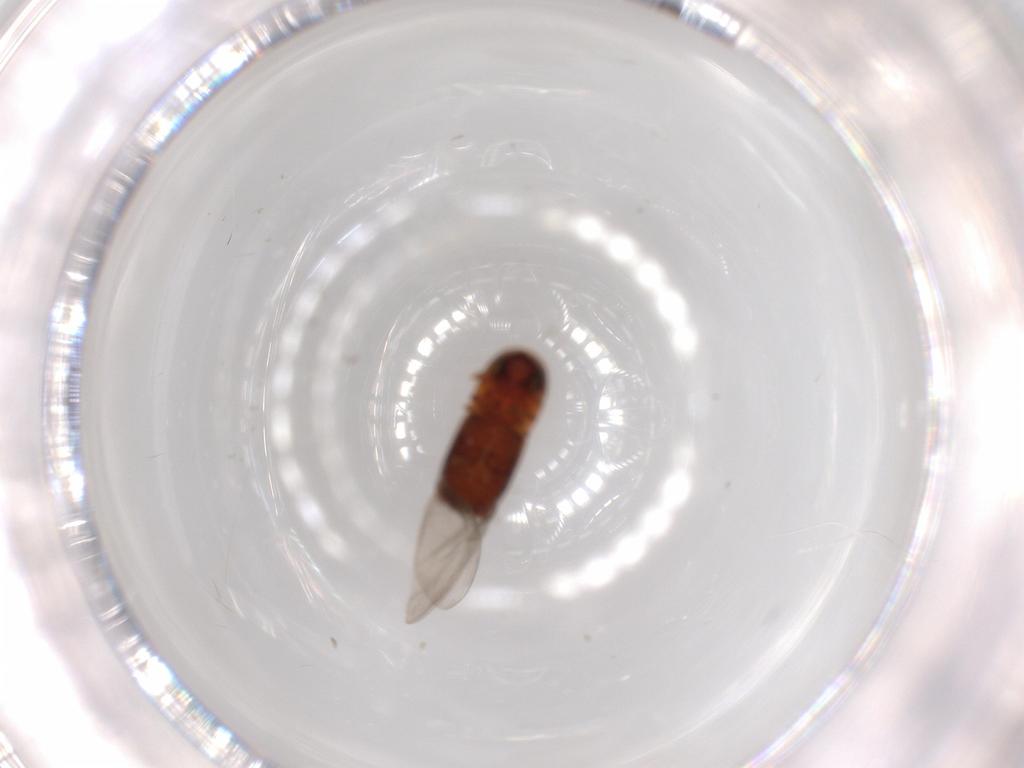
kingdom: Animalia
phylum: Arthropoda
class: Insecta
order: Coleoptera
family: Curculionidae
